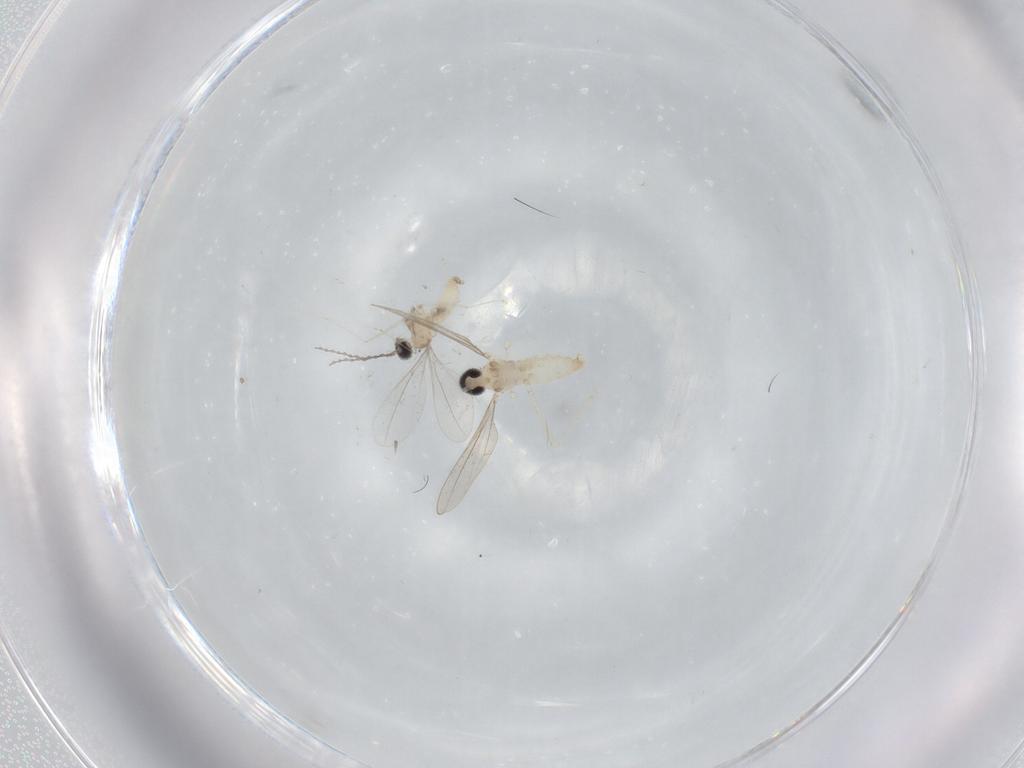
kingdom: Animalia
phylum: Arthropoda
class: Insecta
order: Diptera
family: Cecidomyiidae
